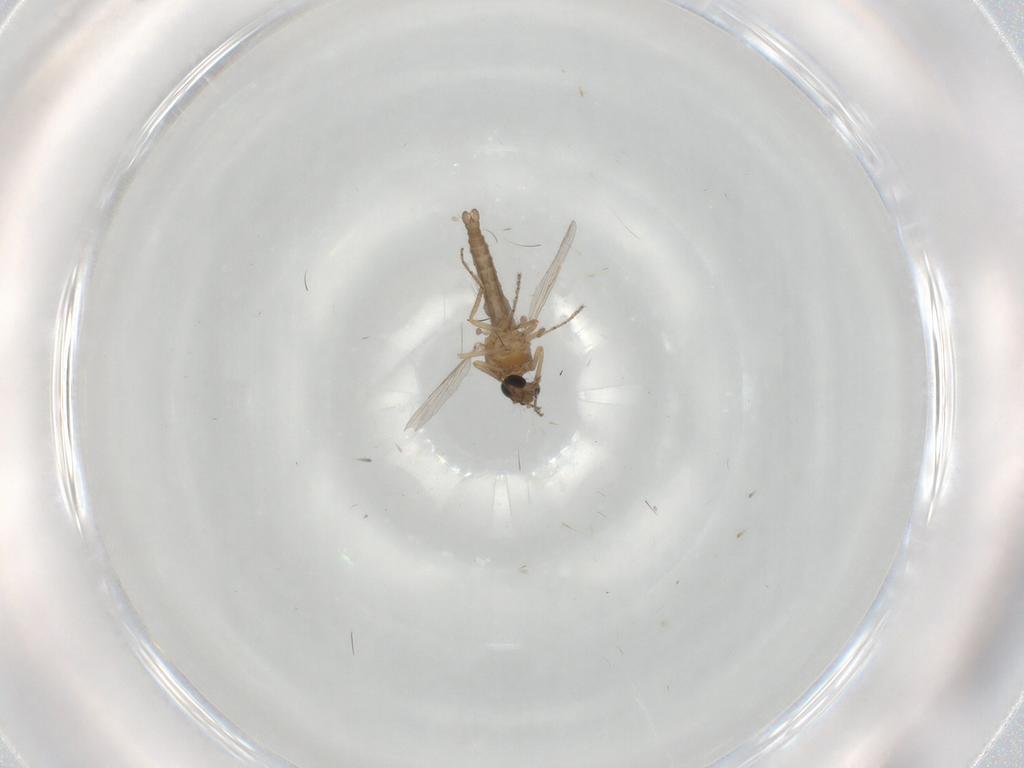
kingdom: Animalia
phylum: Arthropoda
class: Insecta
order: Diptera
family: Ceratopogonidae
